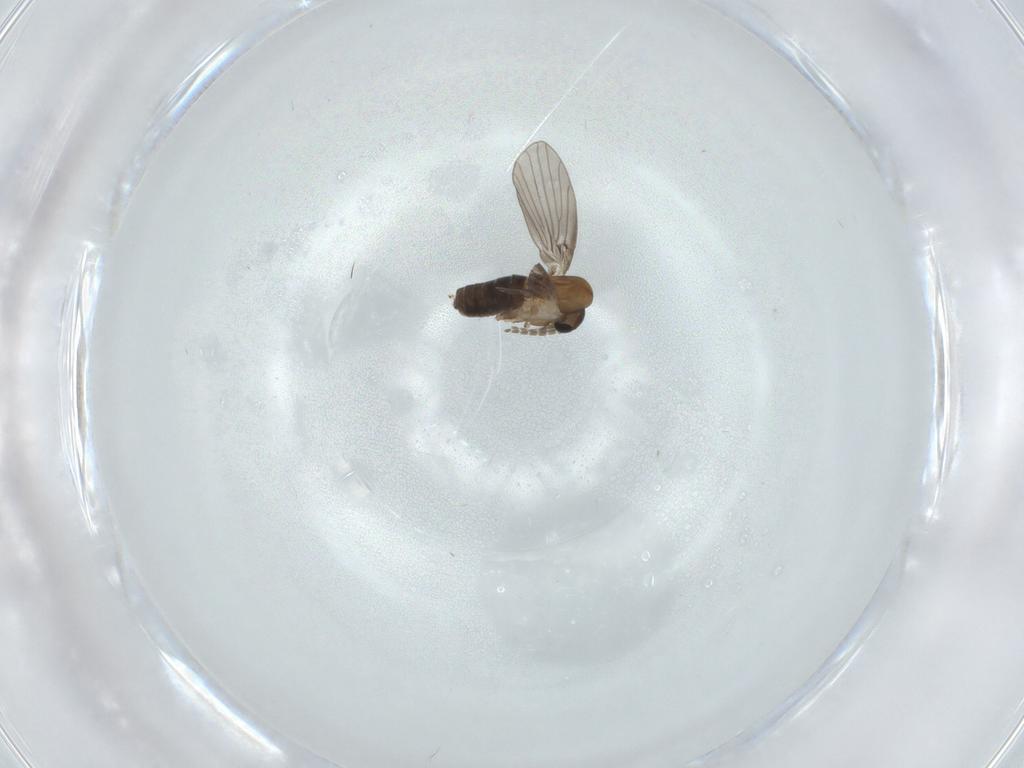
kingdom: Animalia
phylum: Arthropoda
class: Insecta
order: Diptera
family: Psychodidae
